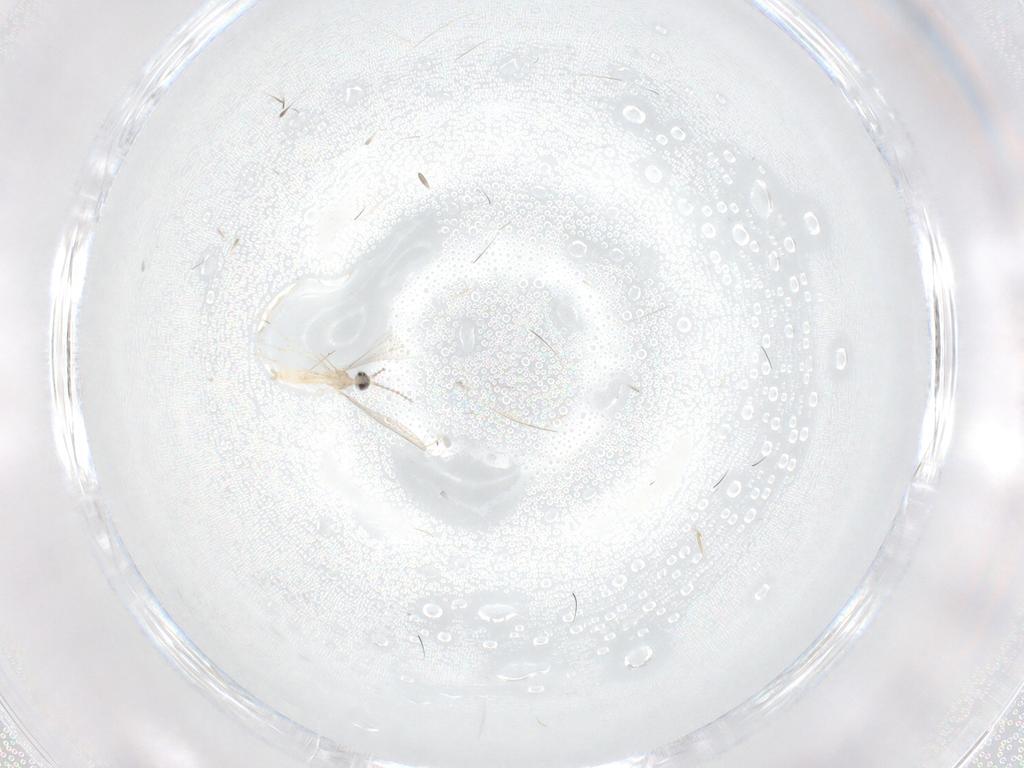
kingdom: Animalia
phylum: Arthropoda
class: Insecta
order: Diptera
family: Cecidomyiidae
